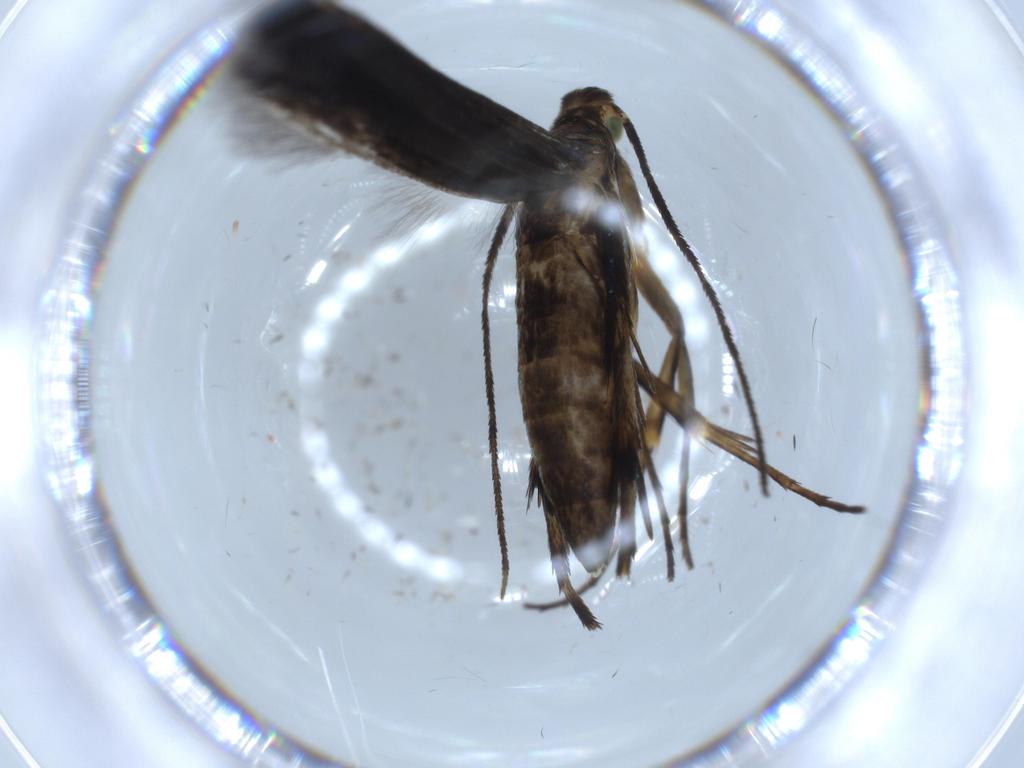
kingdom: Animalia
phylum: Arthropoda
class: Insecta
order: Lepidoptera
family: Heliodinidae
